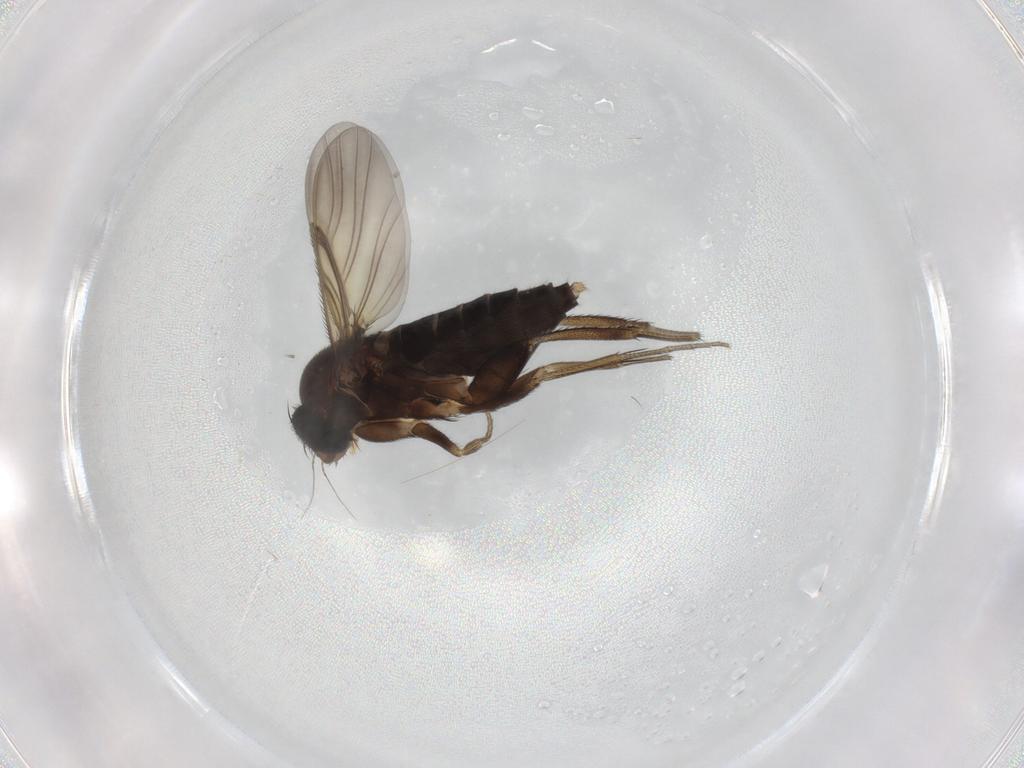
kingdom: Animalia
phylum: Arthropoda
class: Insecta
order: Diptera
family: Phoridae
